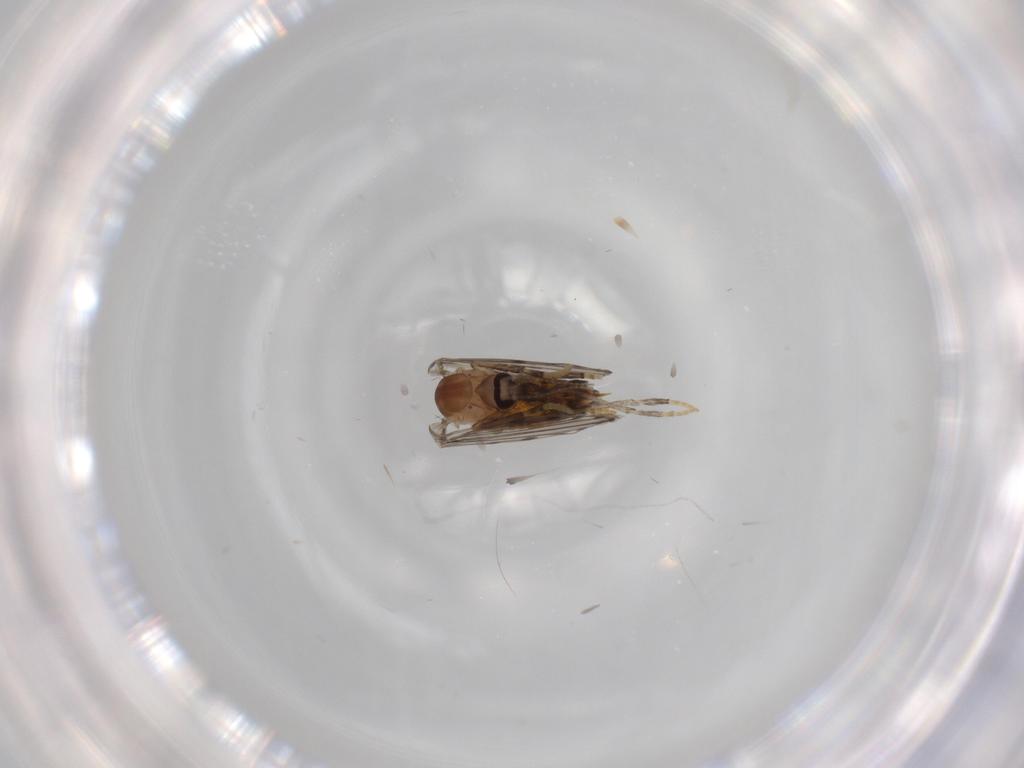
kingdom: Animalia
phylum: Arthropoda
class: Insecta
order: Diptera
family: Psychodidae
